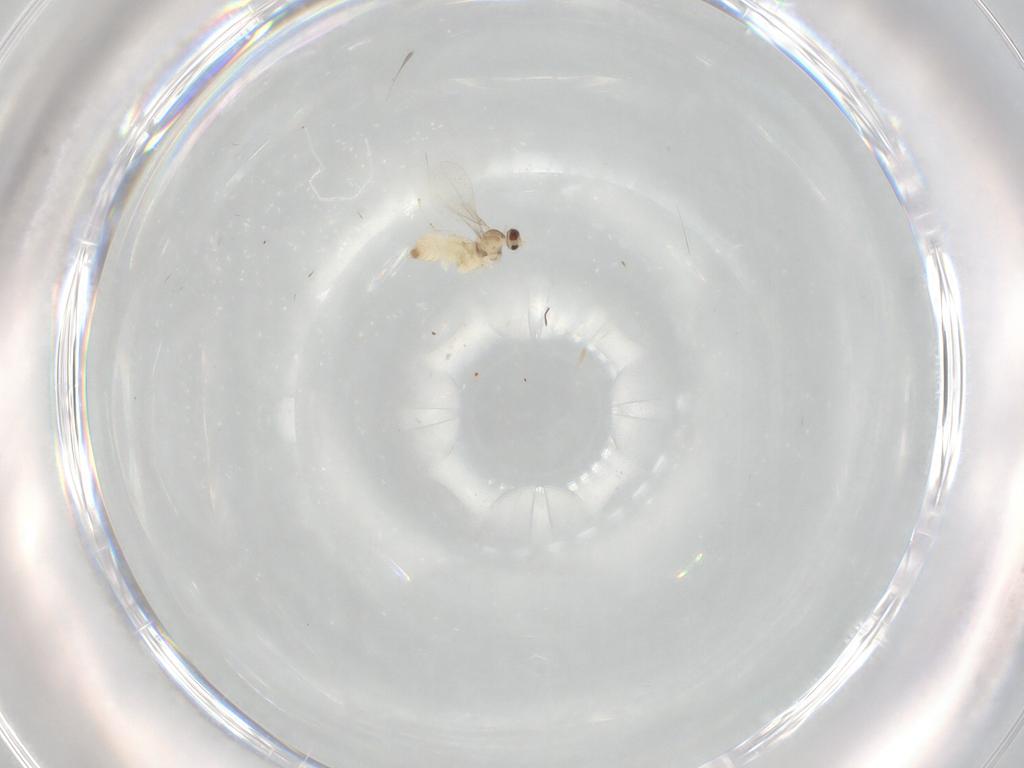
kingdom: Animalia
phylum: Arthropoda
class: Insecta
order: Diptera
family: Cecidomyiidae
